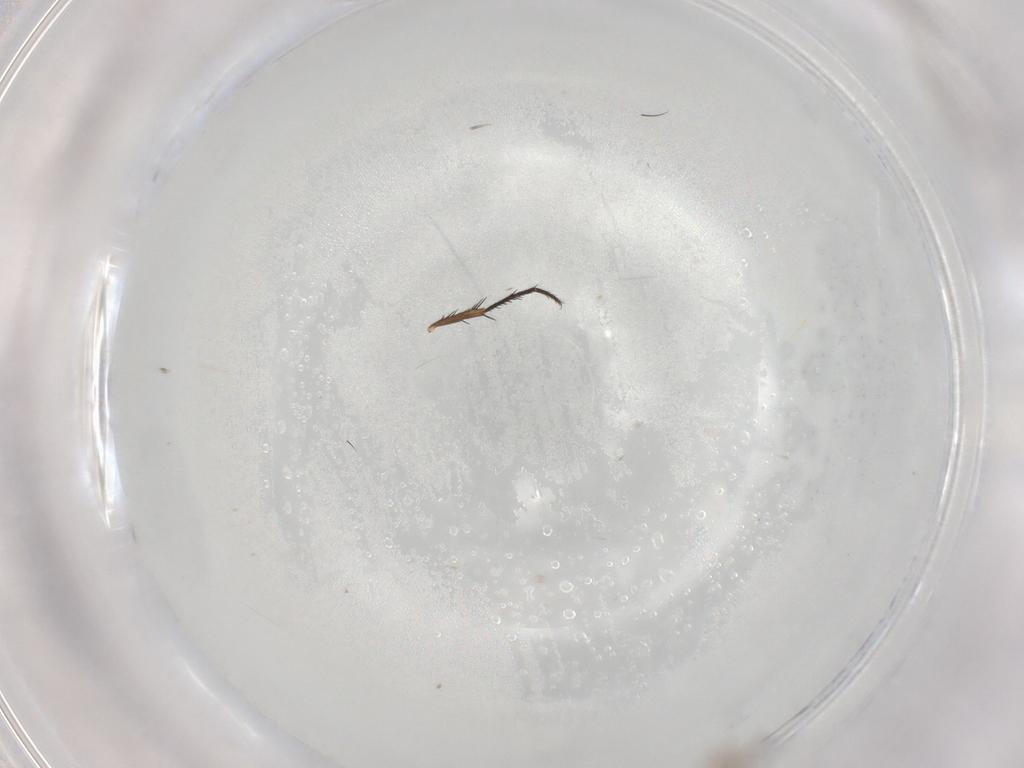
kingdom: Animalia
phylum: Arthropoda
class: Insecta
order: Diptera
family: Cecidomyiidae
